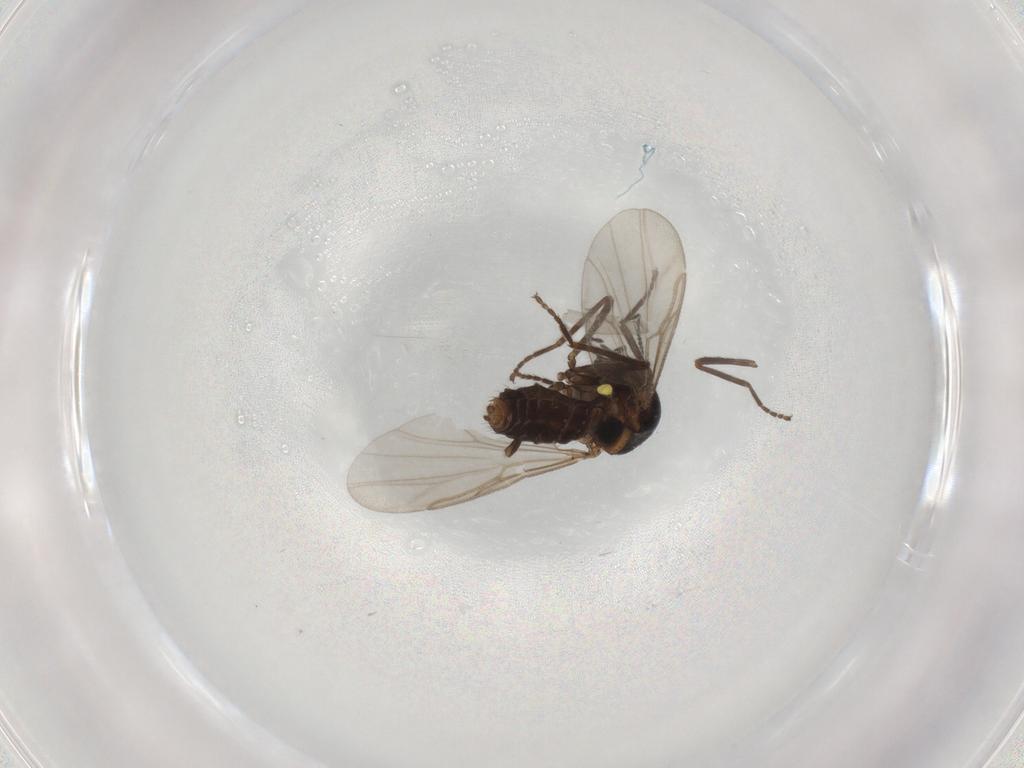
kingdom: Animalia
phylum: Arthropoda
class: Insecta
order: Diptera
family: Ceratopogonidae
